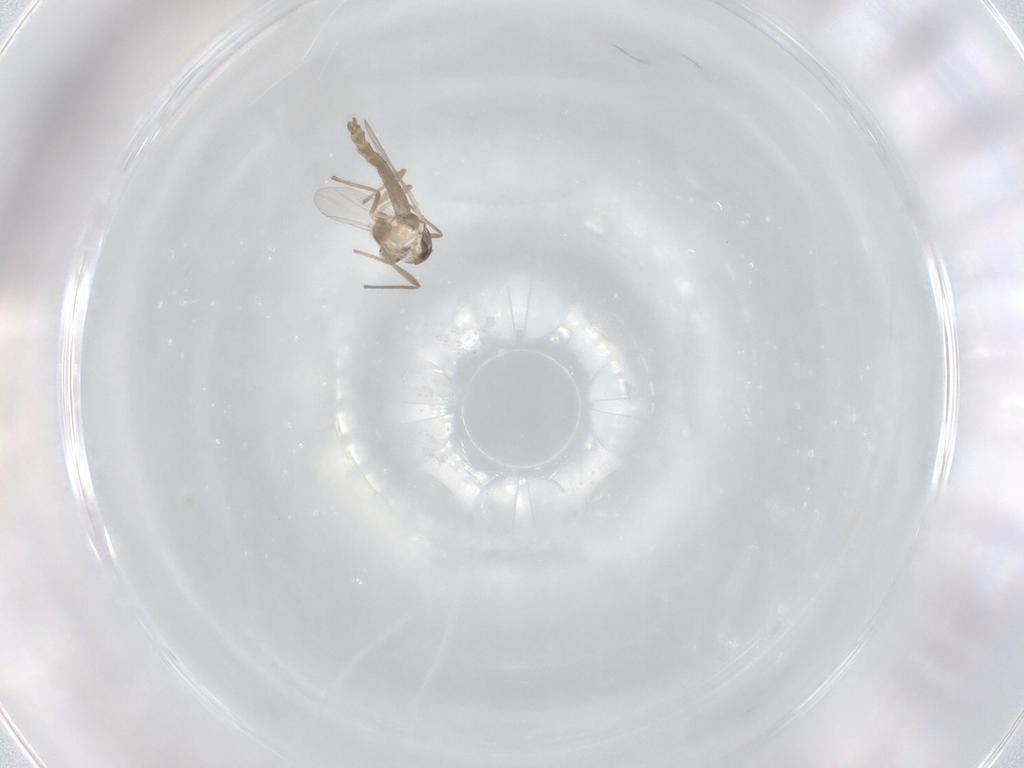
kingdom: Animalia
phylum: Arthropoda
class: Insecta
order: Diptera
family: Chironomidae
